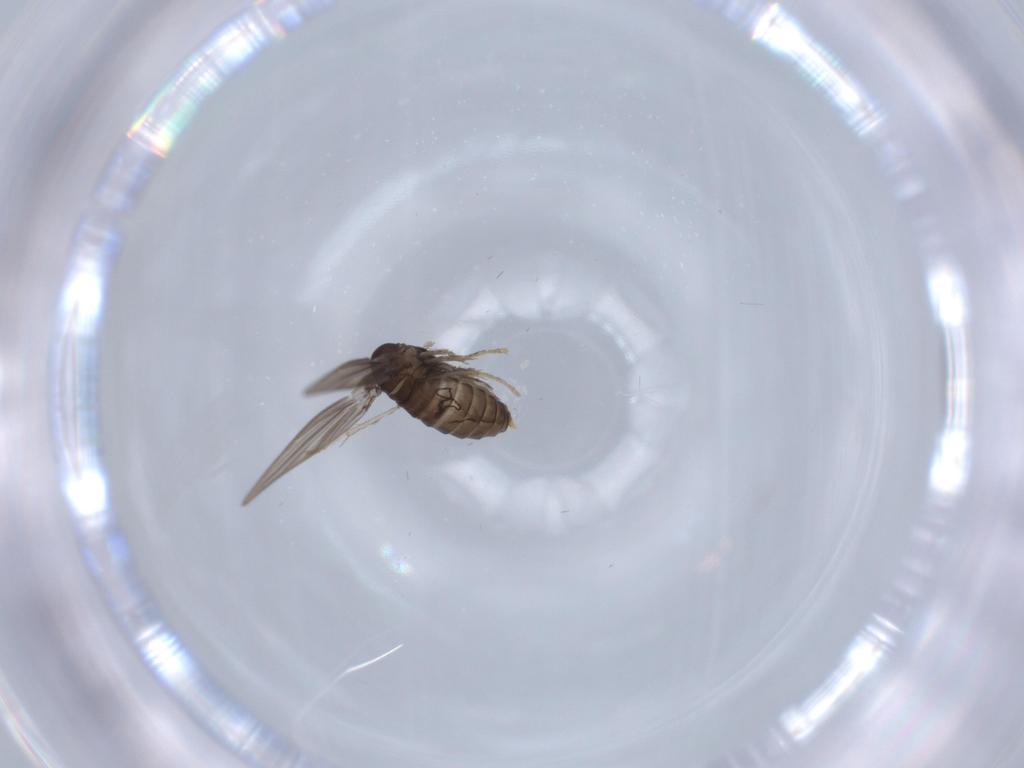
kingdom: Animalia
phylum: Arthropoda
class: Insecta
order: Diptera
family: Psychodidae
